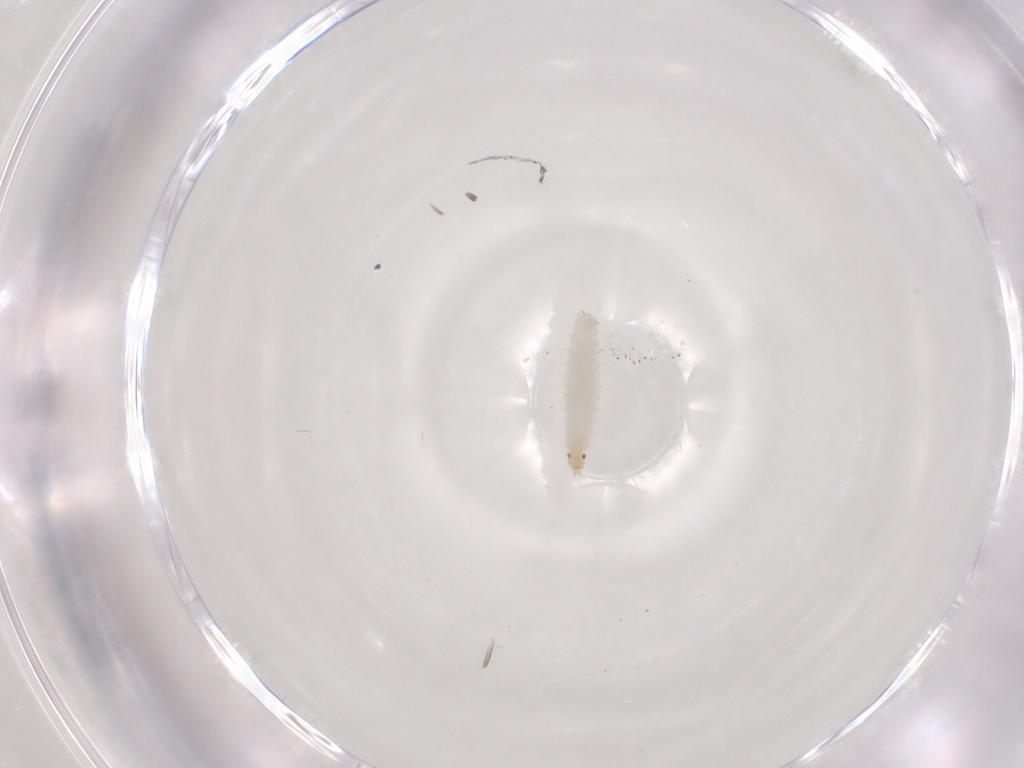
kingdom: Animalia
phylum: Arthropoda
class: Insecta
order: Diptera
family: Stratiomyidae
